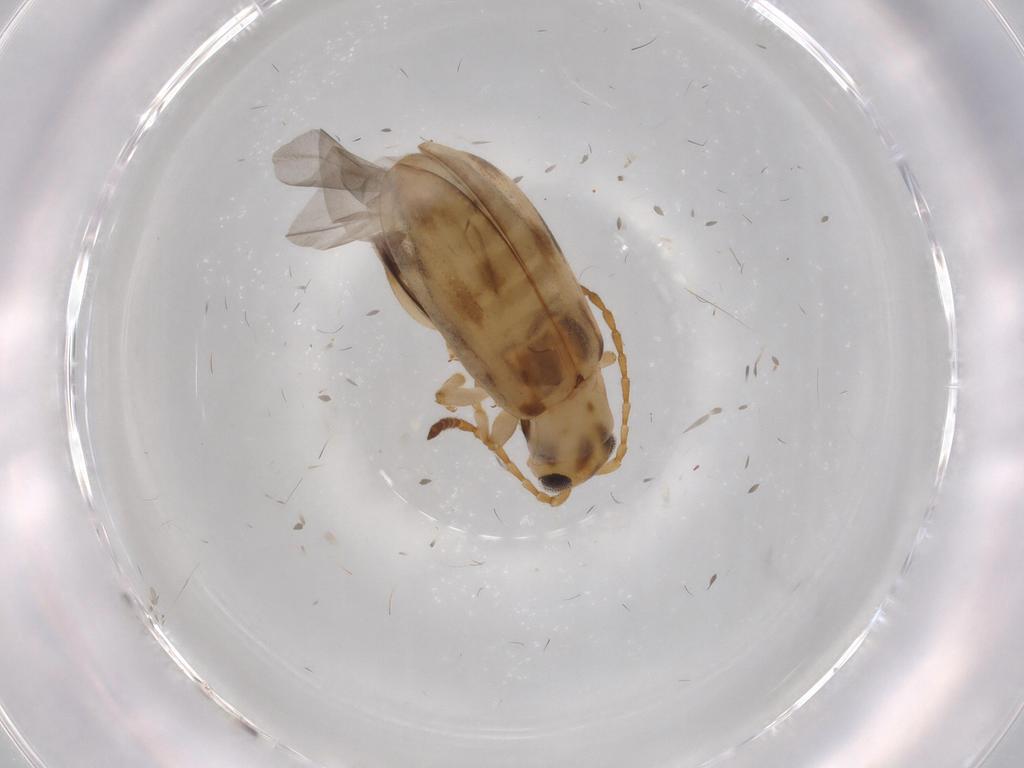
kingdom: Animalia
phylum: Arthropoda
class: Insecta
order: Coleoptera
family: Chrysomelidae
